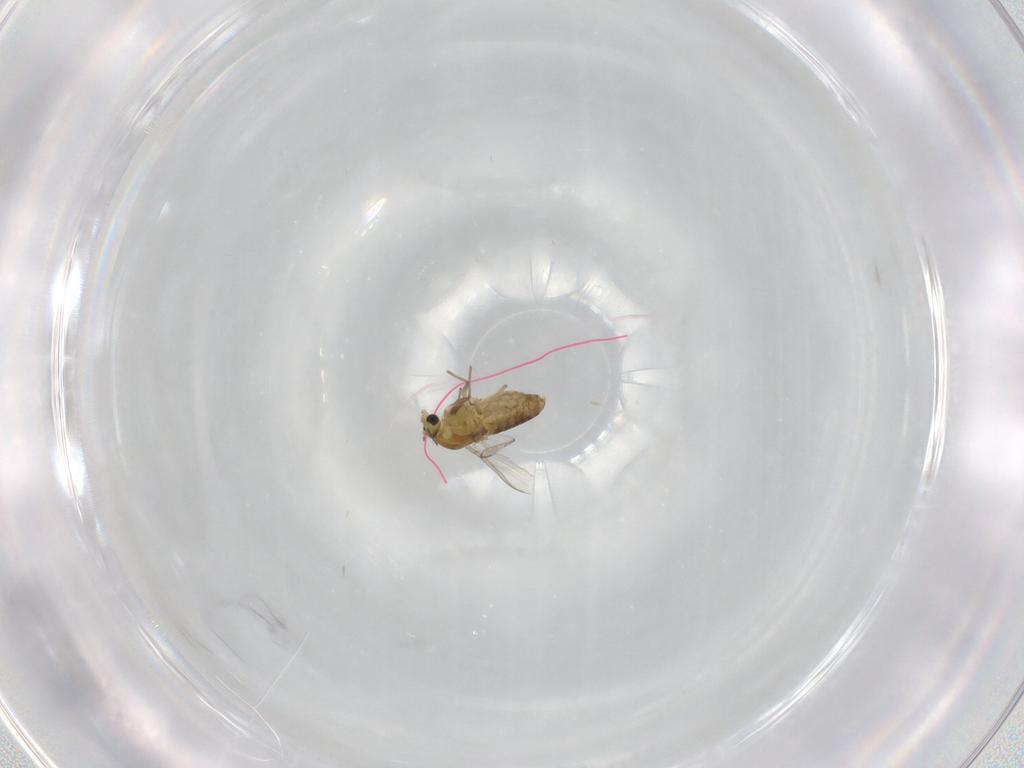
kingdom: Animalia
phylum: Arthropoda
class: Insecta
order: Diptera
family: Chironomidae
